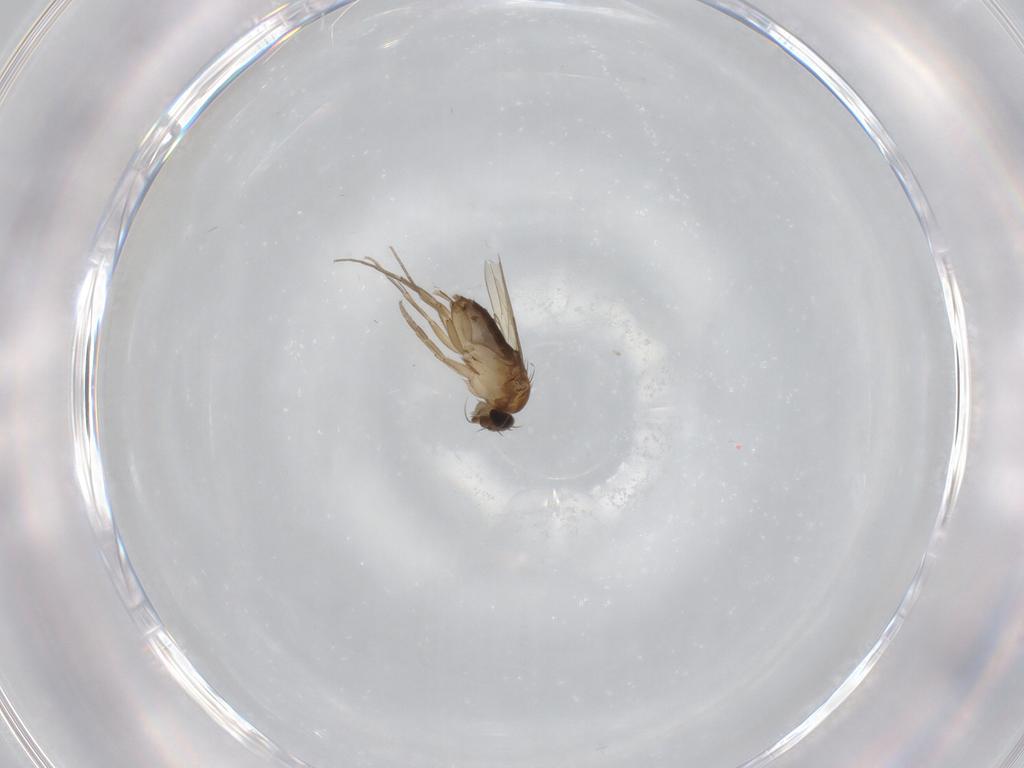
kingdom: Animalia
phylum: Arthropoda
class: Insecta
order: Diptera
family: Phoridae
